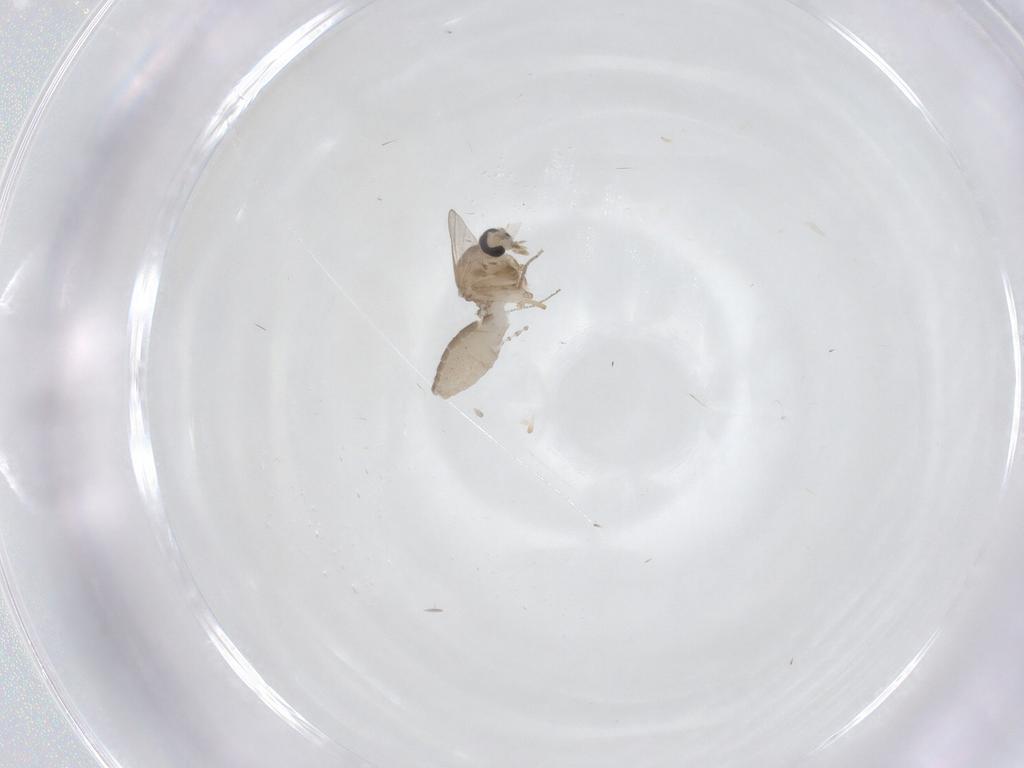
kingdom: Animalia
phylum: Arthropoda
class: Insecta
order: Diptera
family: Ceratopogonidae
